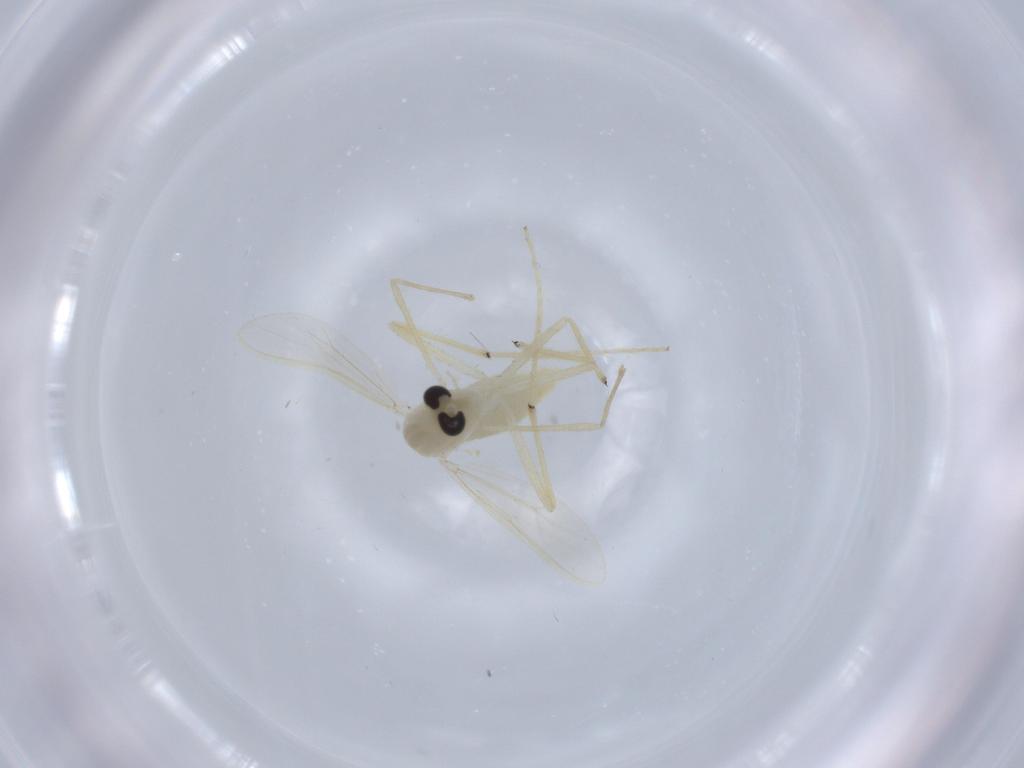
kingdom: Animalia
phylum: Arthropoda
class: Insecta
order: Diptera
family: Chironomidae
